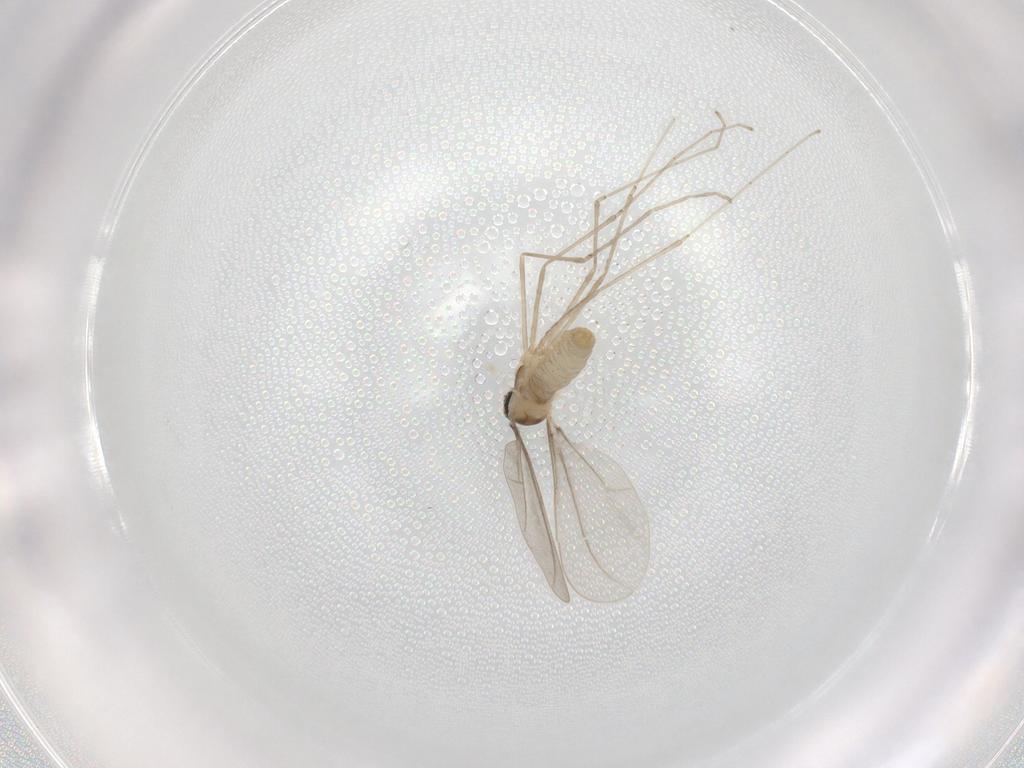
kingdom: Animalia
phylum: Arthropoda
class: Insecta
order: Diptera
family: Cecidomyiidae
